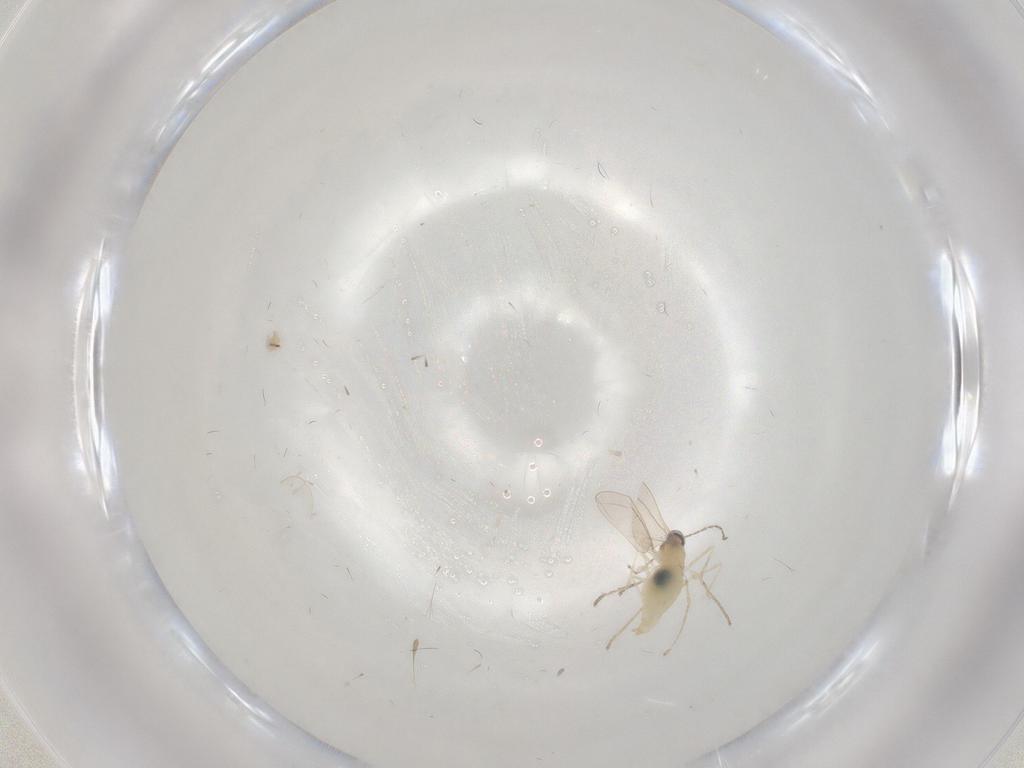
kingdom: Animalia
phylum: Arthropoda
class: Insecta
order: Diptera
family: Cecidomyiidae
